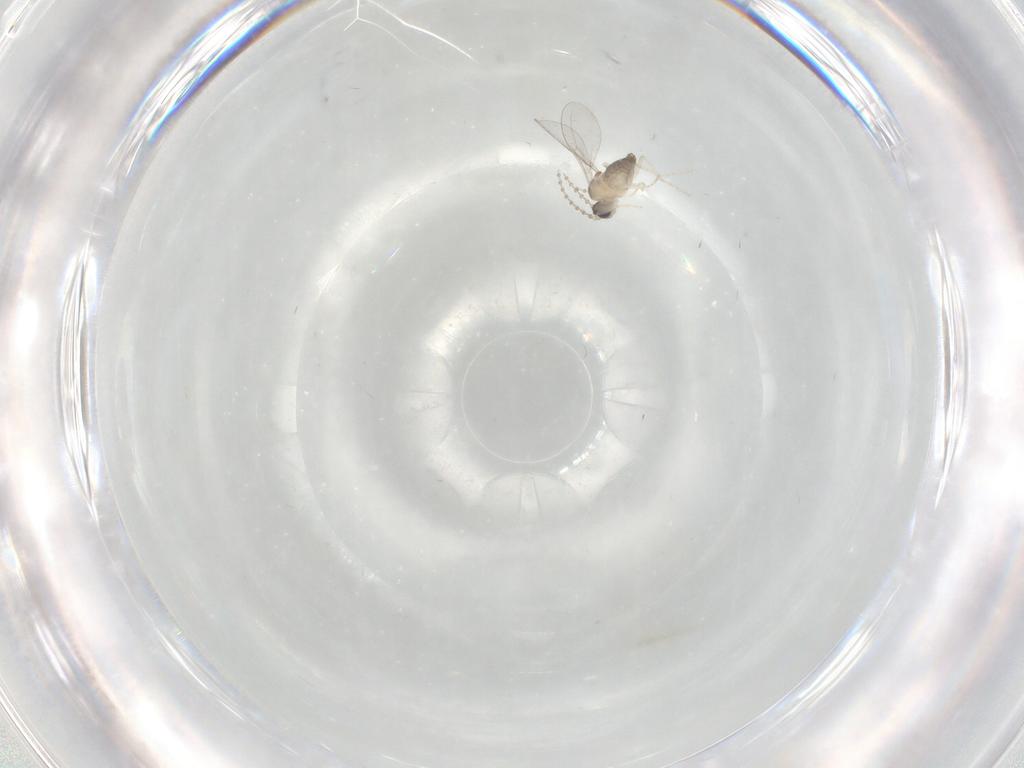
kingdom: Animalia
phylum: Arthropoda
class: Insecta
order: Diptera
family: Cecidomyiidae
